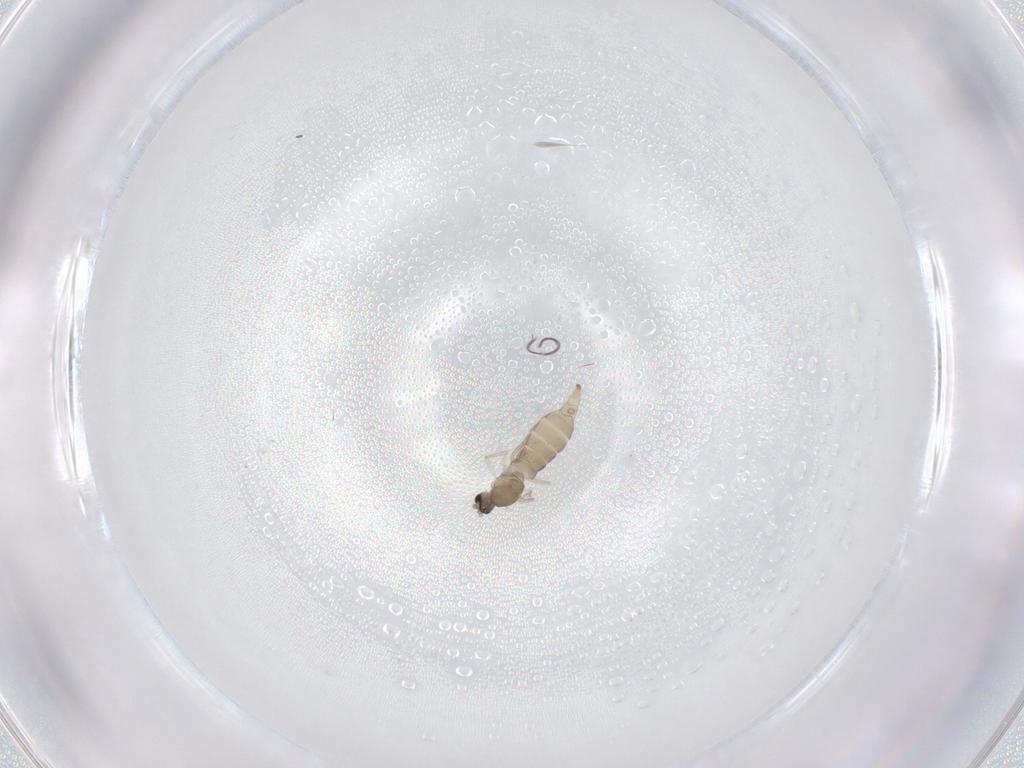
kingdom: Animalia
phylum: Arthropoda
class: Insecta
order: Diptera
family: Cecidomyiidae
